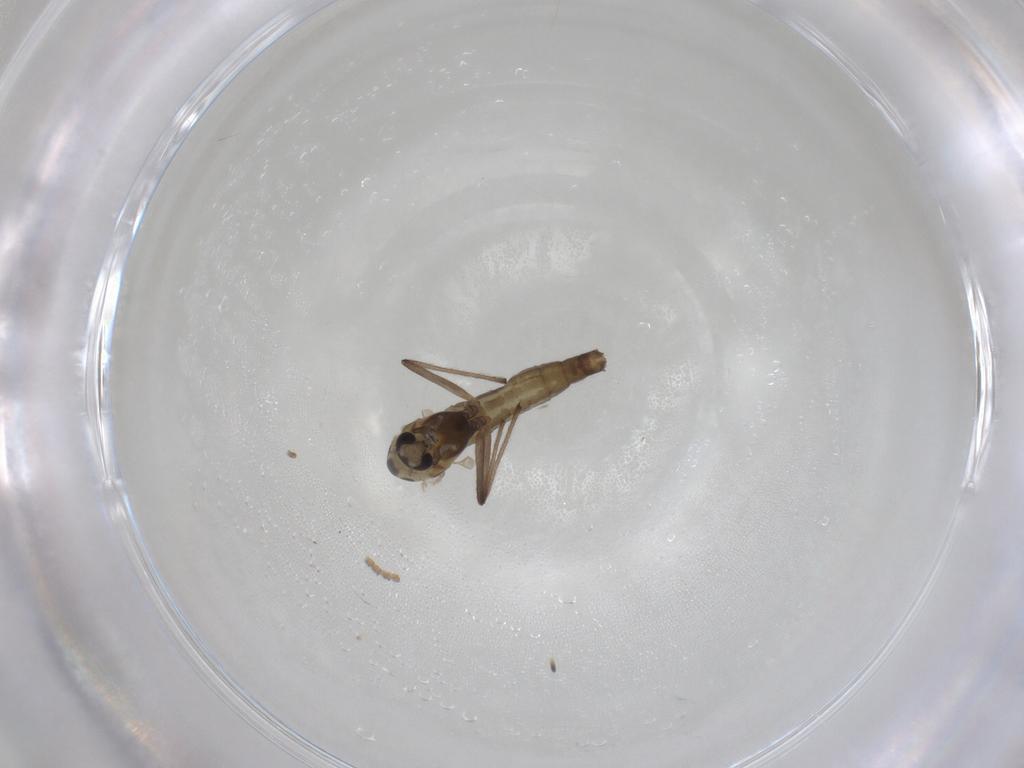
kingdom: Animalia
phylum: Arthropoda
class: Insecta
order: Diptera
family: Chironomidae
